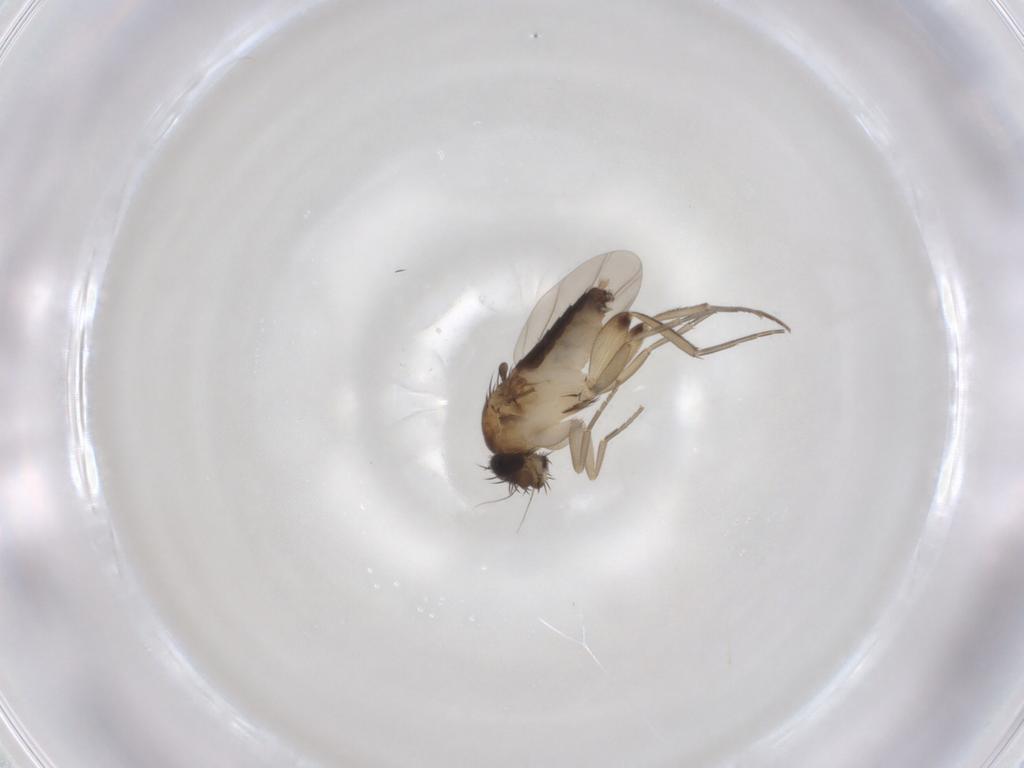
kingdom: Animalia
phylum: Arthropoda
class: Insecta
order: Diptera
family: Phoridae
